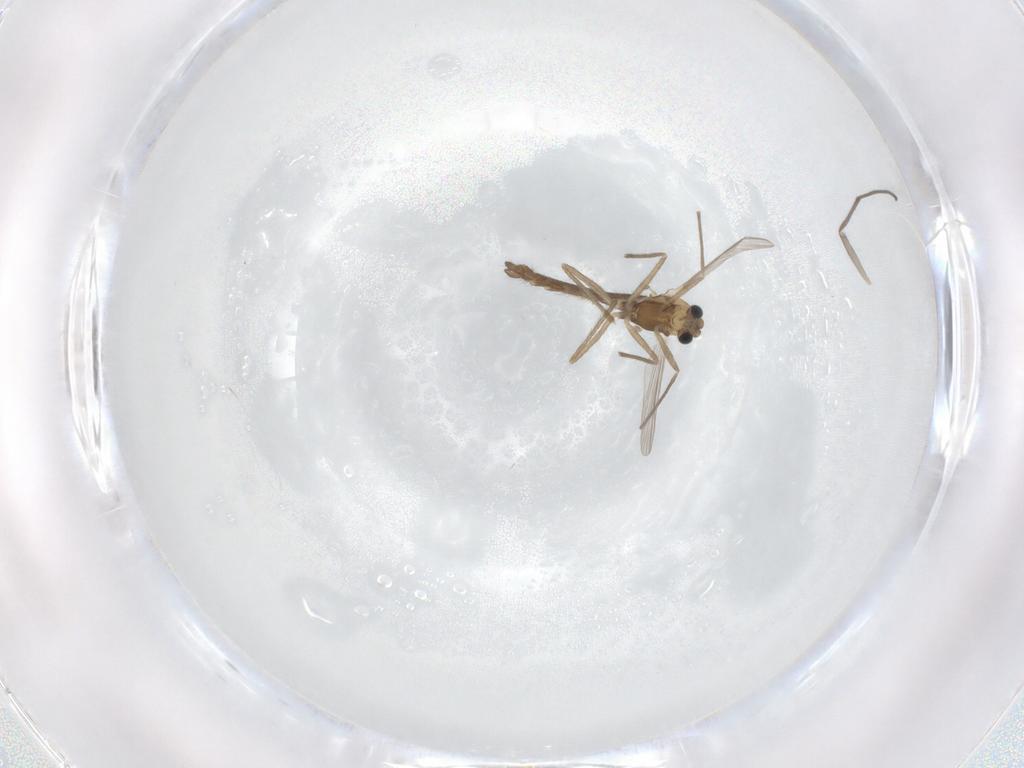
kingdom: Animalia
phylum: Arthropoda
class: Insecta
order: Diptera
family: Chironomidae
